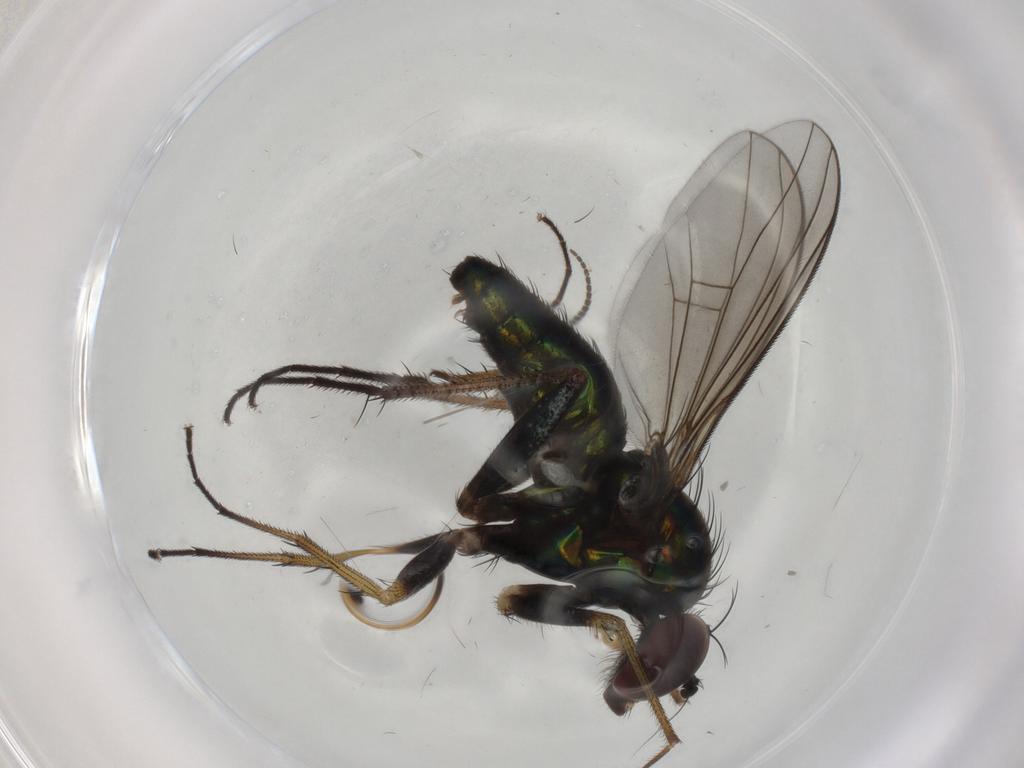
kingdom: Animalia
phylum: Arthropoda
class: Insecta
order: Diptera
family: Dolichopodidae
